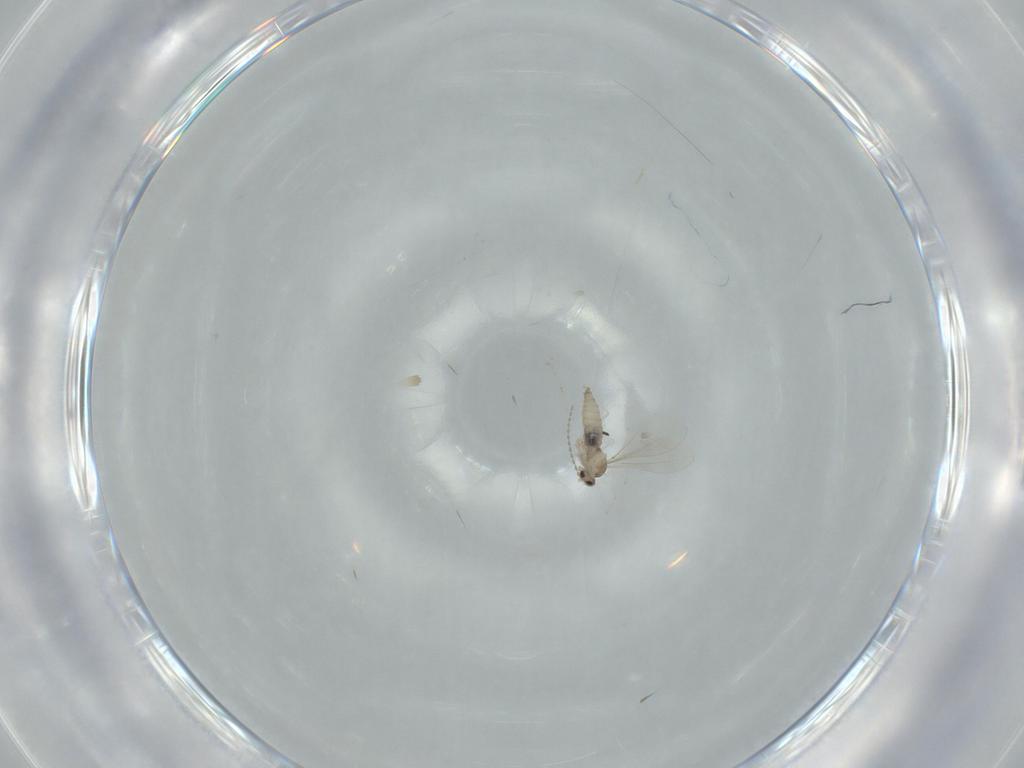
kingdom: Animalia
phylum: Arthropoda
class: Insecta
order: Diptera
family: Cecidomyiidae
